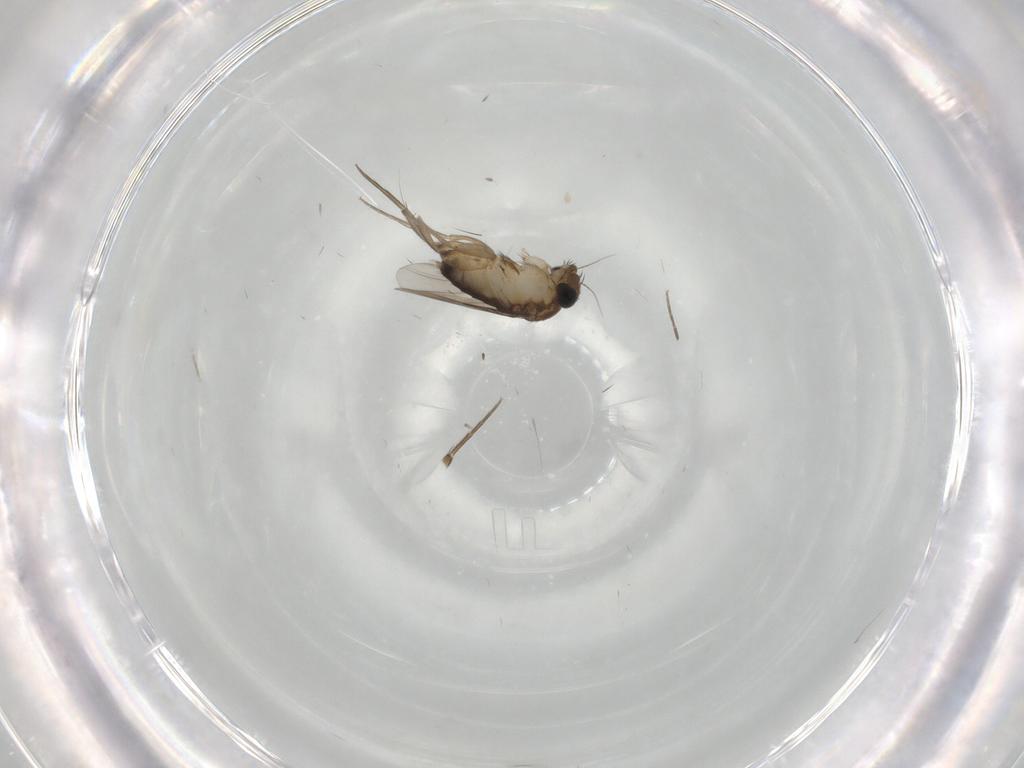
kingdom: Animalia
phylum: Arthropoda
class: Insecta
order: Diptera
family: Phoridae
